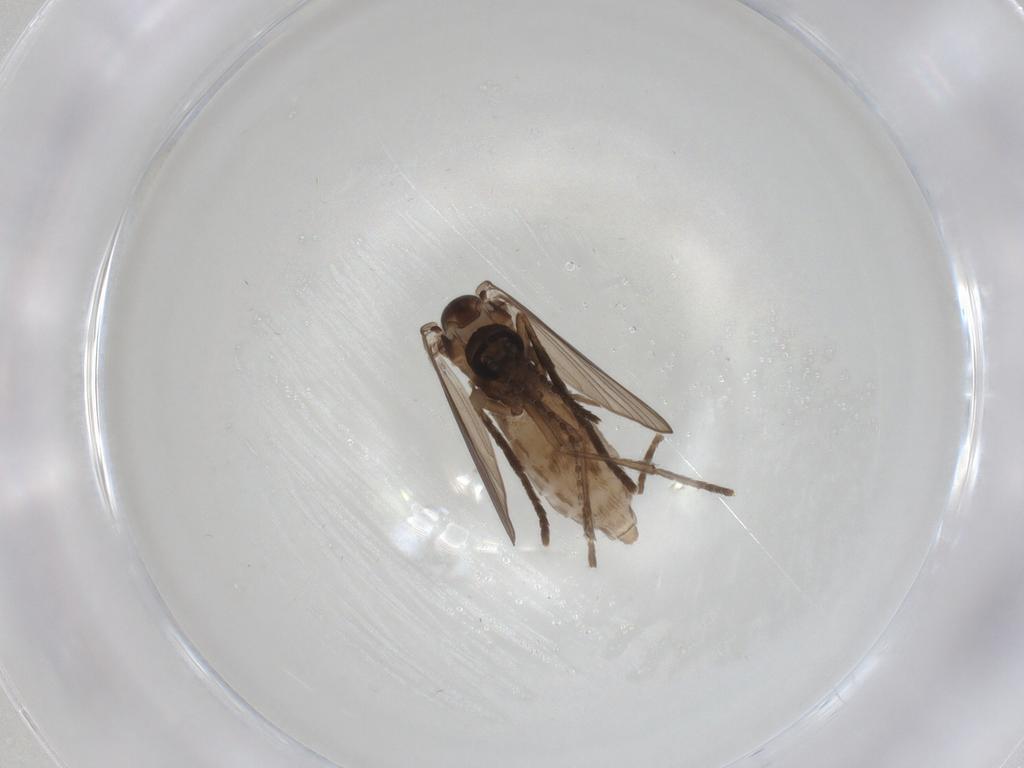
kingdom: Animalia
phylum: Arthropoda
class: Insecta
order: Diptera
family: Psychodidae
